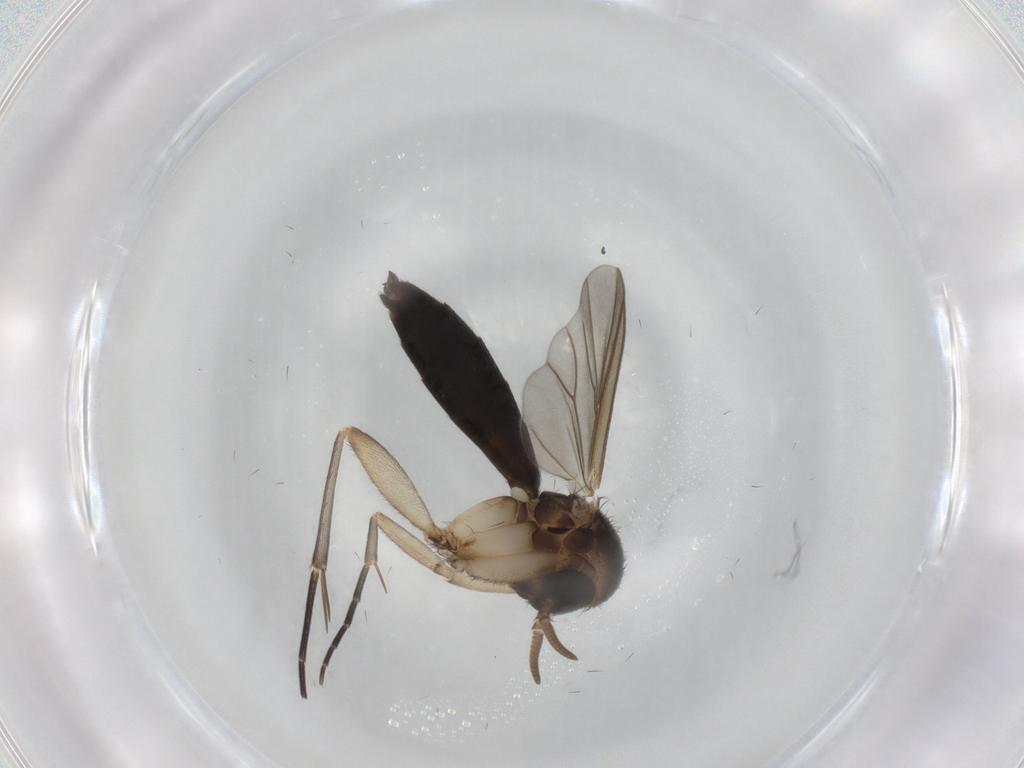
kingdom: Animalia
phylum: Arthropoda
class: Insecta
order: Diptera
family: Mycetophilidae
